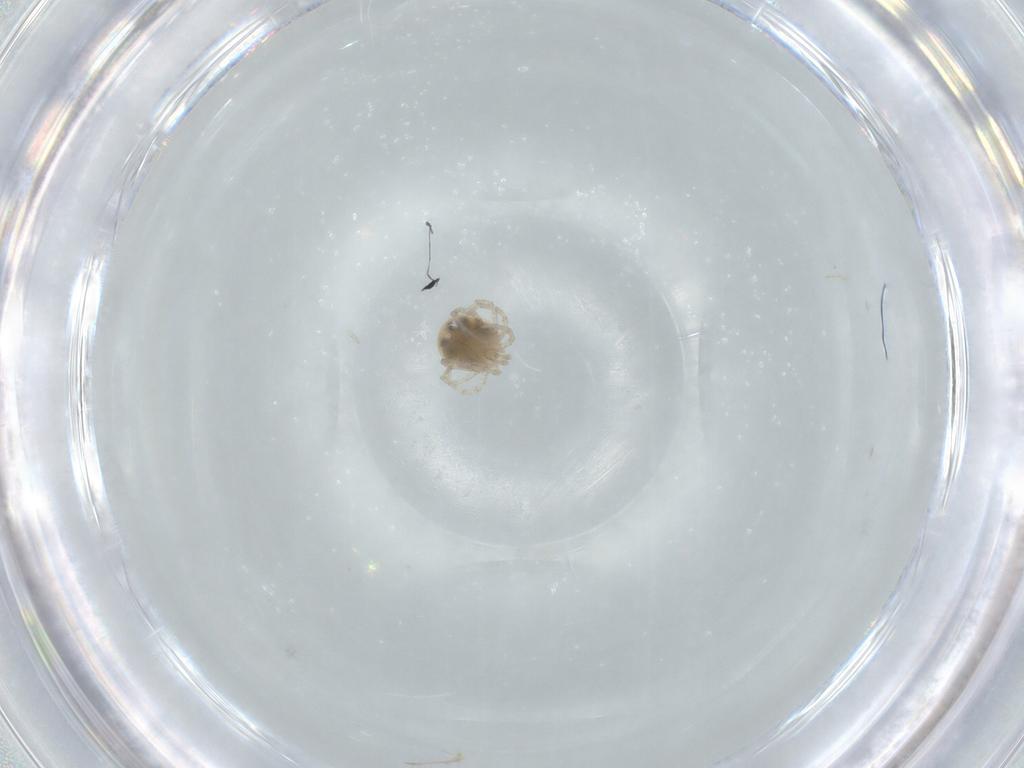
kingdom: Animalia
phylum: Arthropoda
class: Arachnida
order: Trombidiformes
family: Lebertiidae
